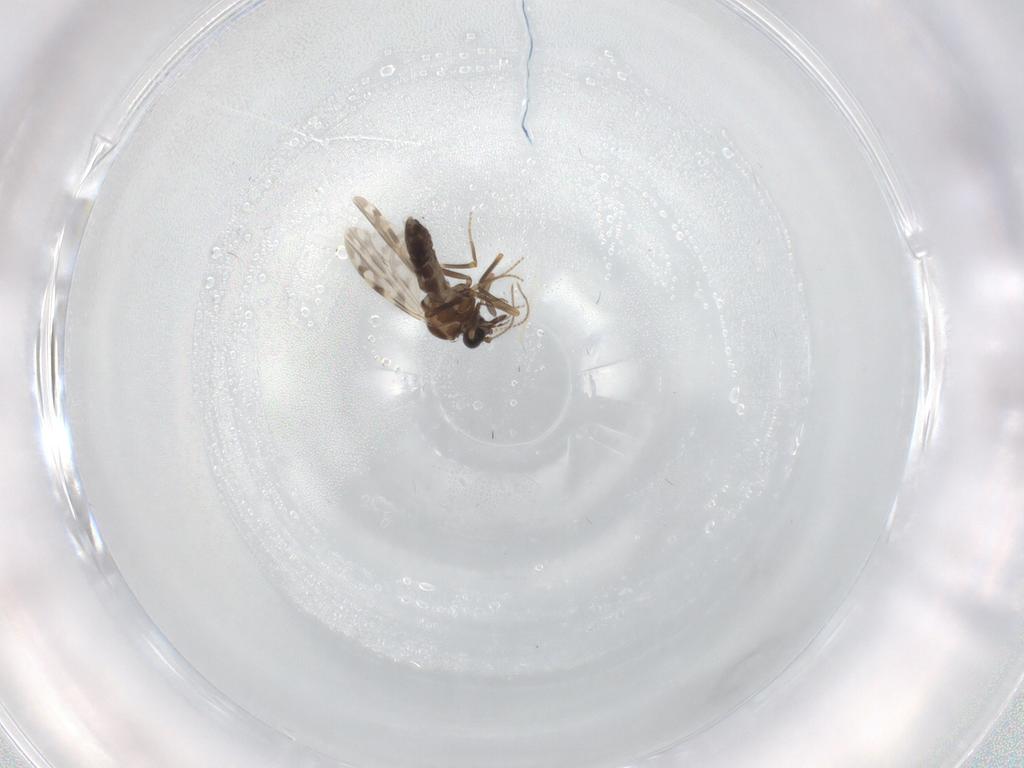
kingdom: Animalia
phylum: Arthropoda
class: Insecta
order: Diptera
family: Ceratopogonidae
